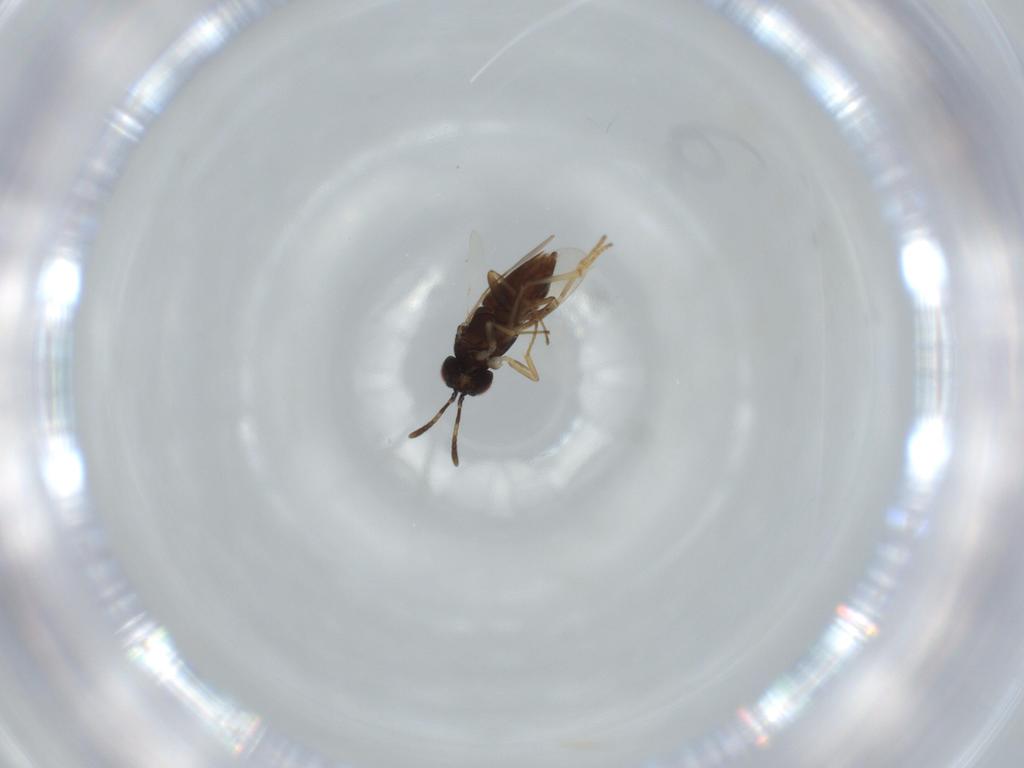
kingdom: Animalia
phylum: Arthropoda
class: Insecta
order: Hymenoptera
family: Encyrtidae
